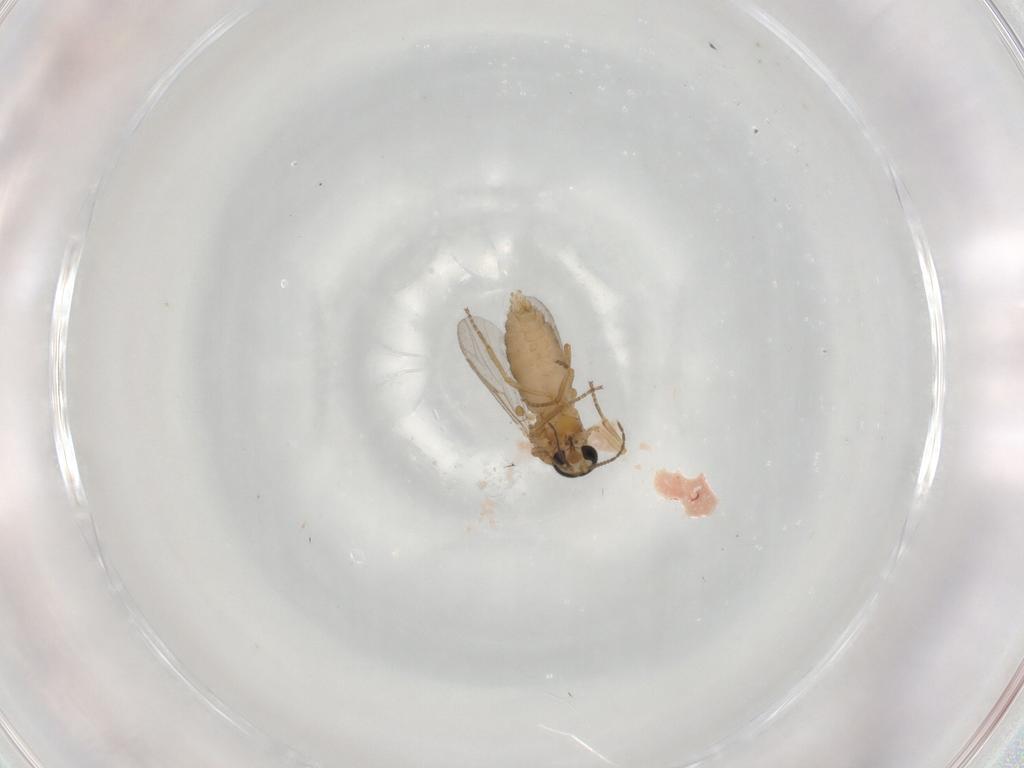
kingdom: Animalia
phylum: Arthropoda
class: Insecta
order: Diptera
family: Ceratopogonidae
